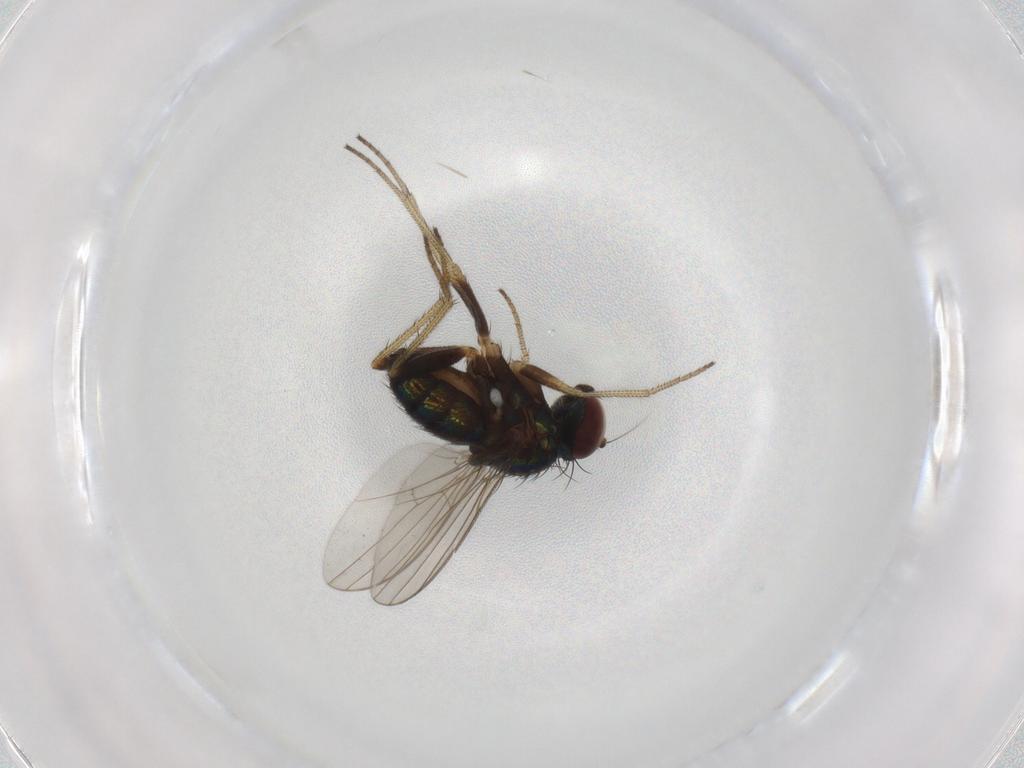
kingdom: Animalia
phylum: Arthropoda
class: Insecta
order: Diptera
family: Dolichopodidae
